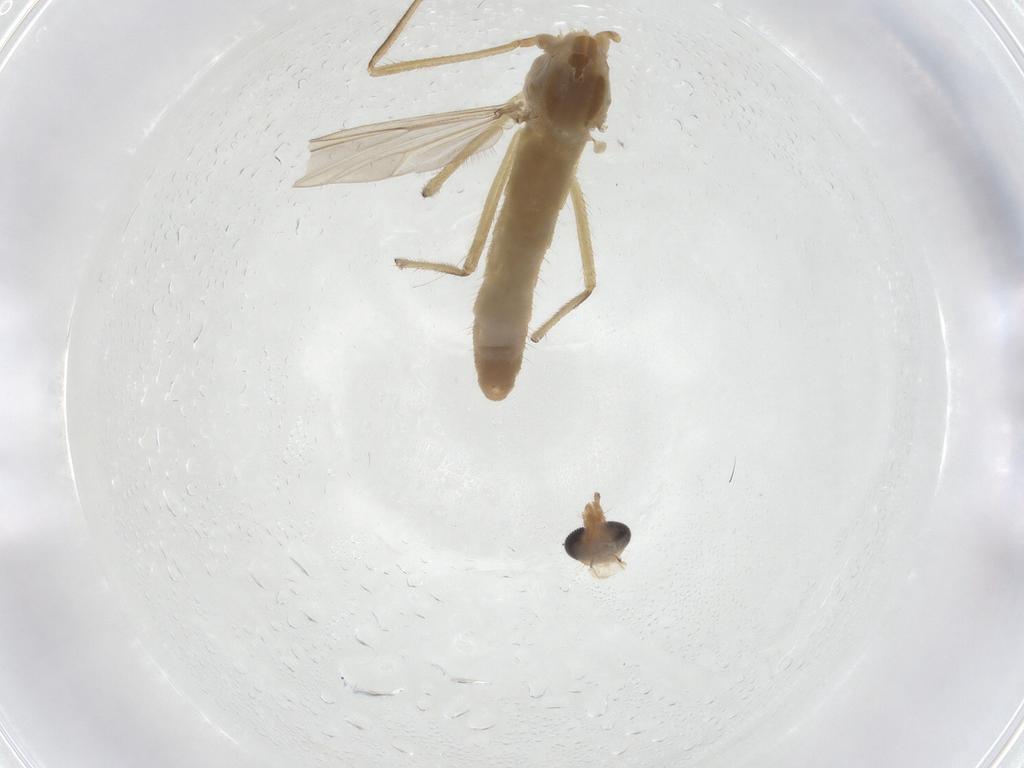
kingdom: Animalia
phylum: Arthropoda
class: Insecta
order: Diptera
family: Chironomidae
